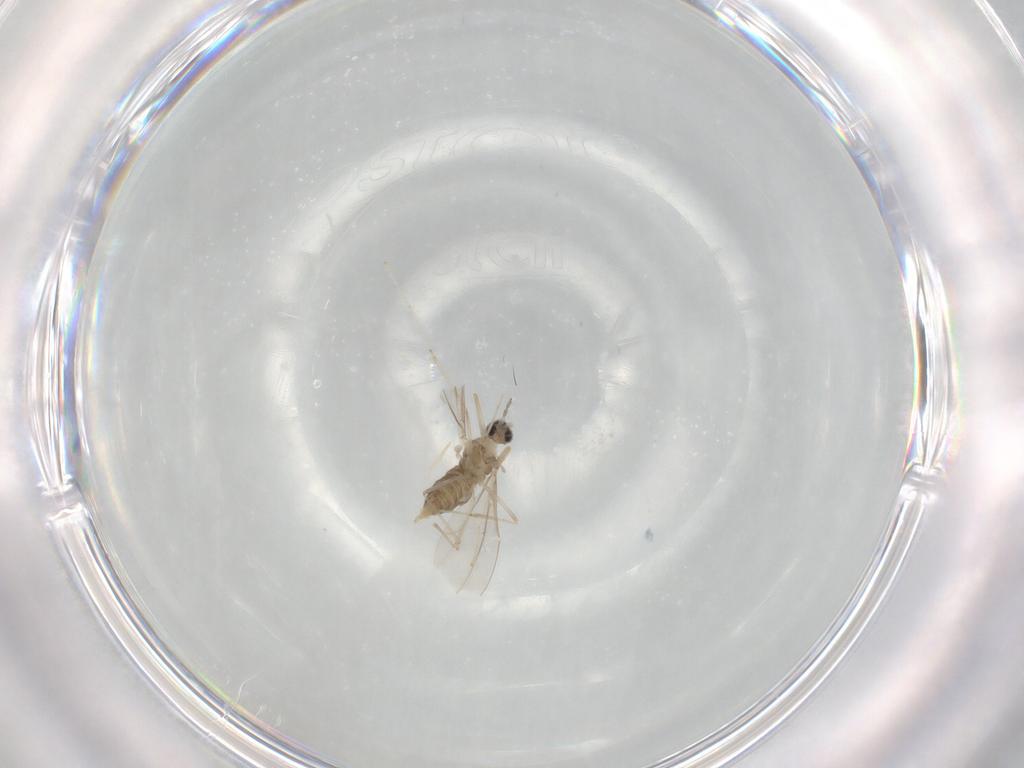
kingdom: Animalia
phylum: Arthropoda
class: Insecta
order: Diptera
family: Cecidomyiidae
